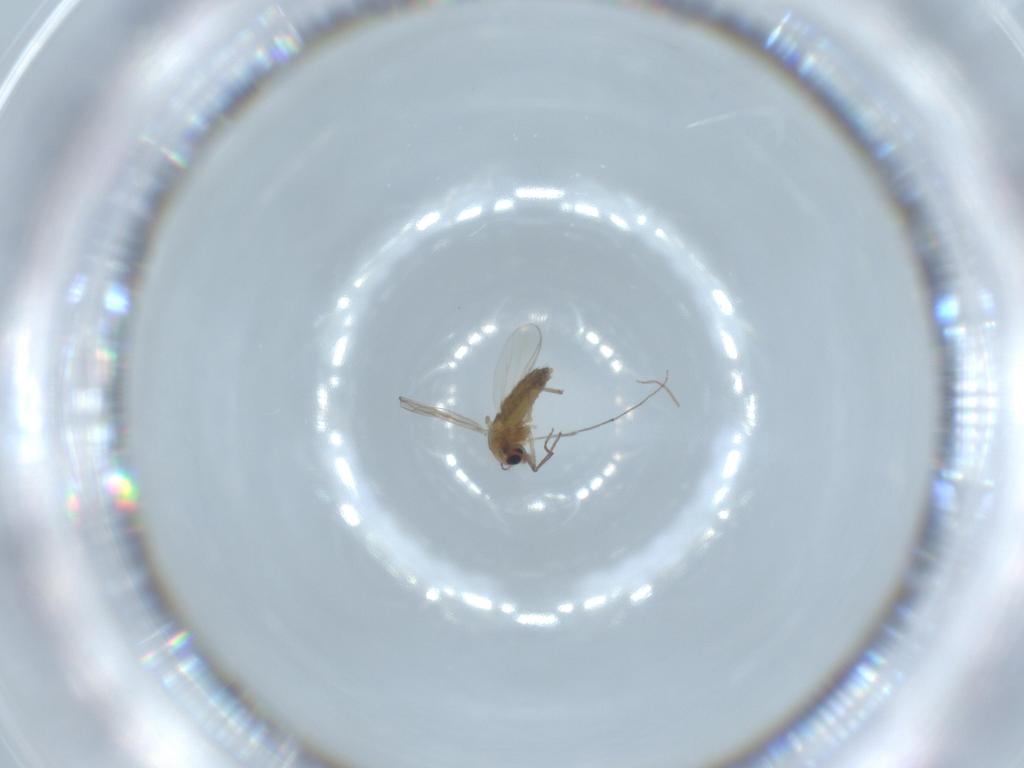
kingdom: Animalia
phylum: Arthropoda
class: Insecta
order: Diptera
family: Chironomidae
